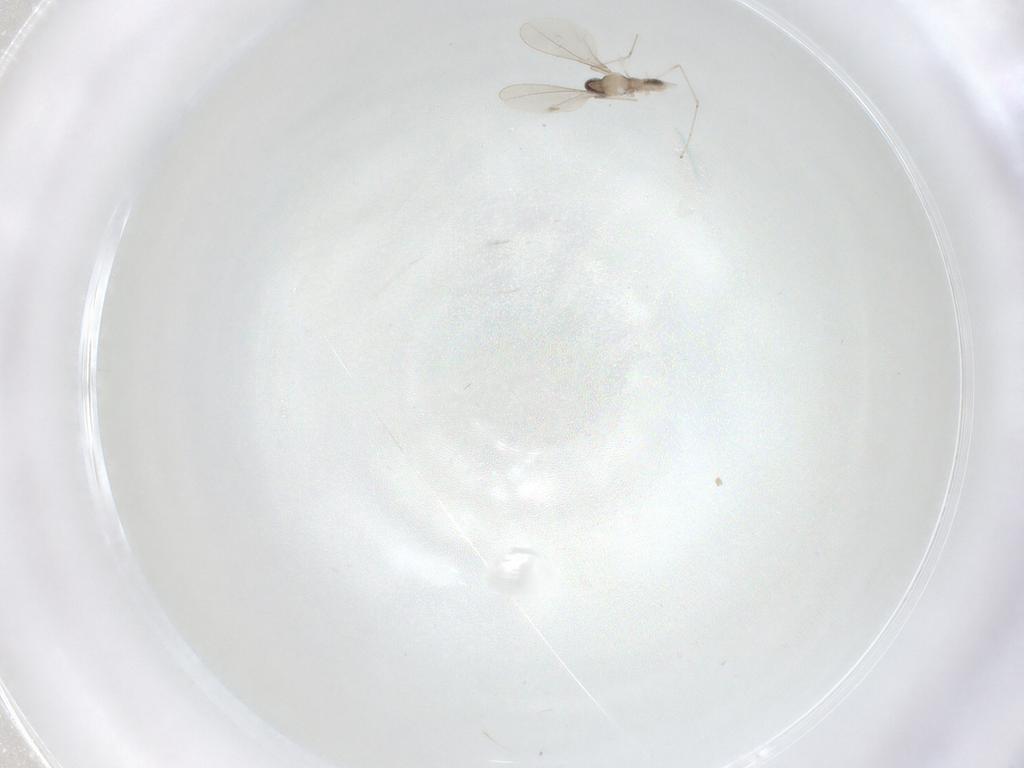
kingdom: Animalia
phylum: Arthropoda
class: Insecta
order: Diptera
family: Cecidomyiidae
